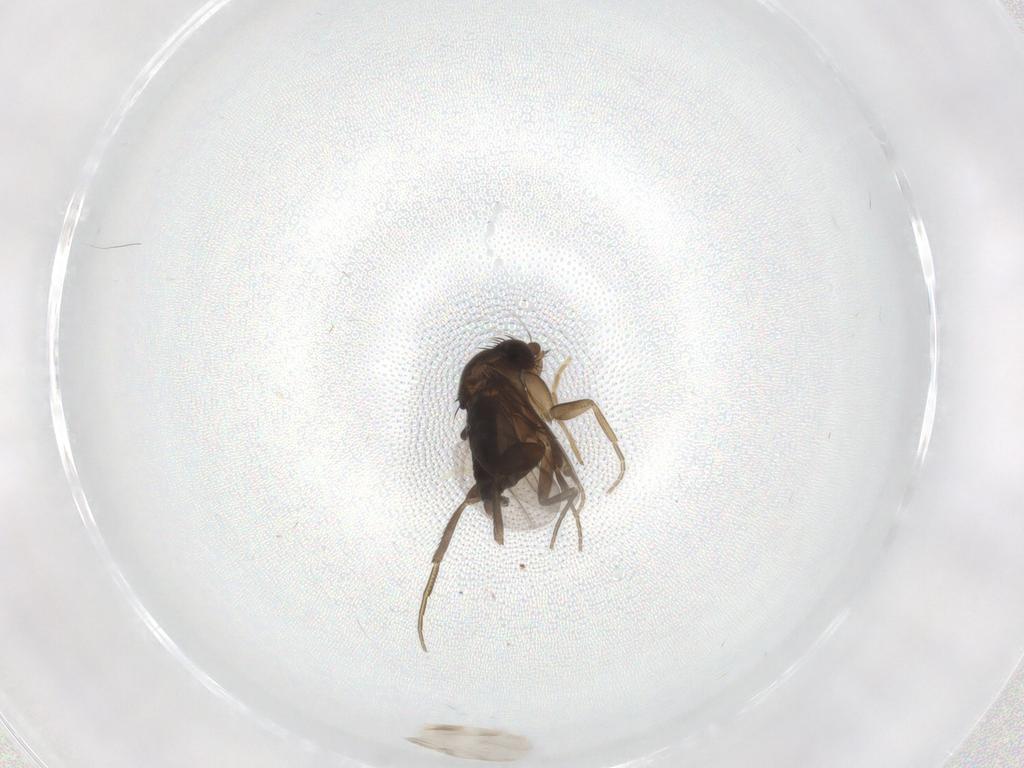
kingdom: Animalia
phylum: Arthropoda
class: Insecta
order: Diptera
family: Phoridae
